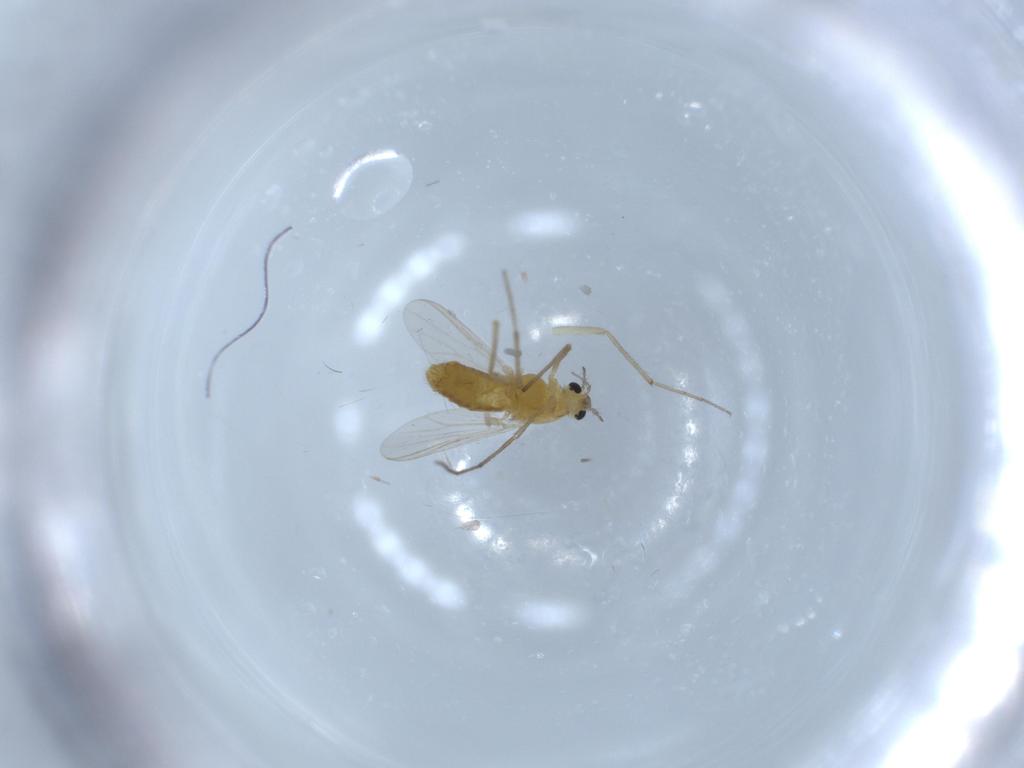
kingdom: Animalia
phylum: Arthropoda
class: Insecta
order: Diptera
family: Chironomidae
